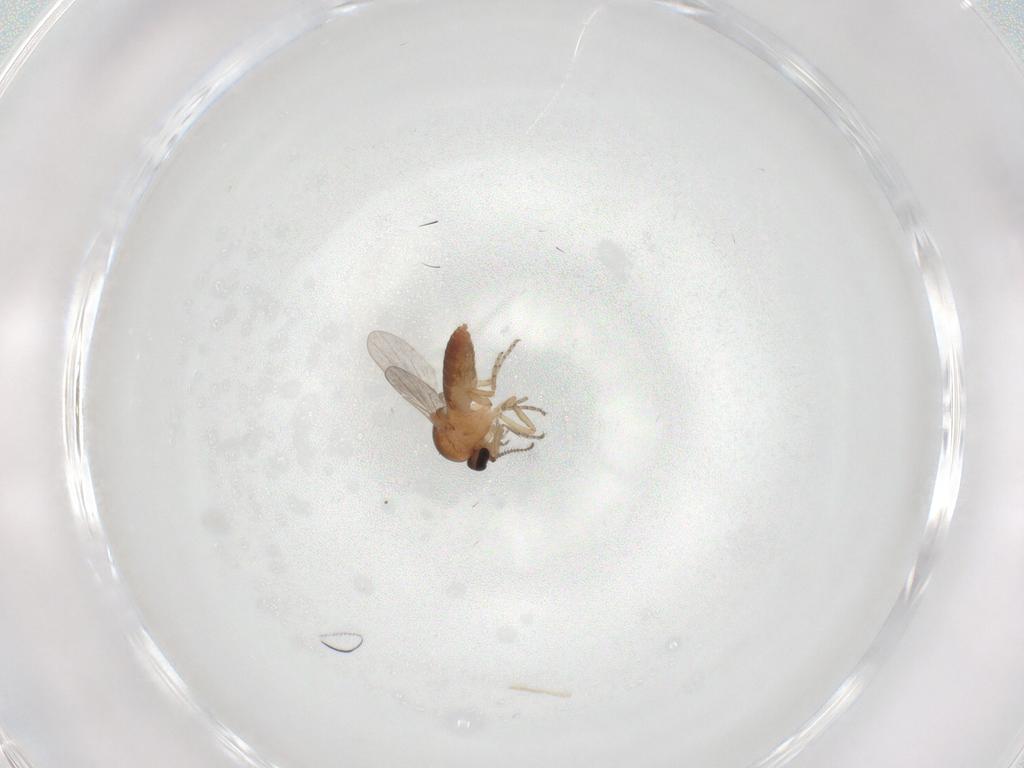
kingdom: Animalia
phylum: Arthropoda
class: Insecta
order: Diptera
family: Ceratopogonidae
